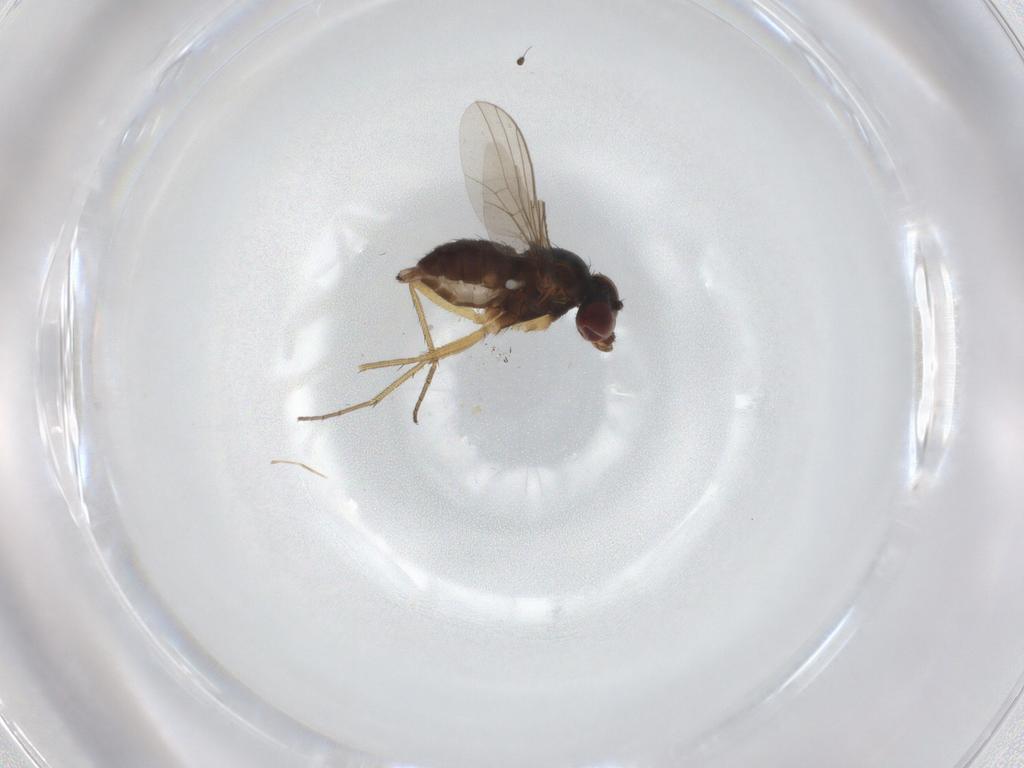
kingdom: Animalia
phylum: Arthropoda
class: Insecta
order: Diptera
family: Dolichopodidae
